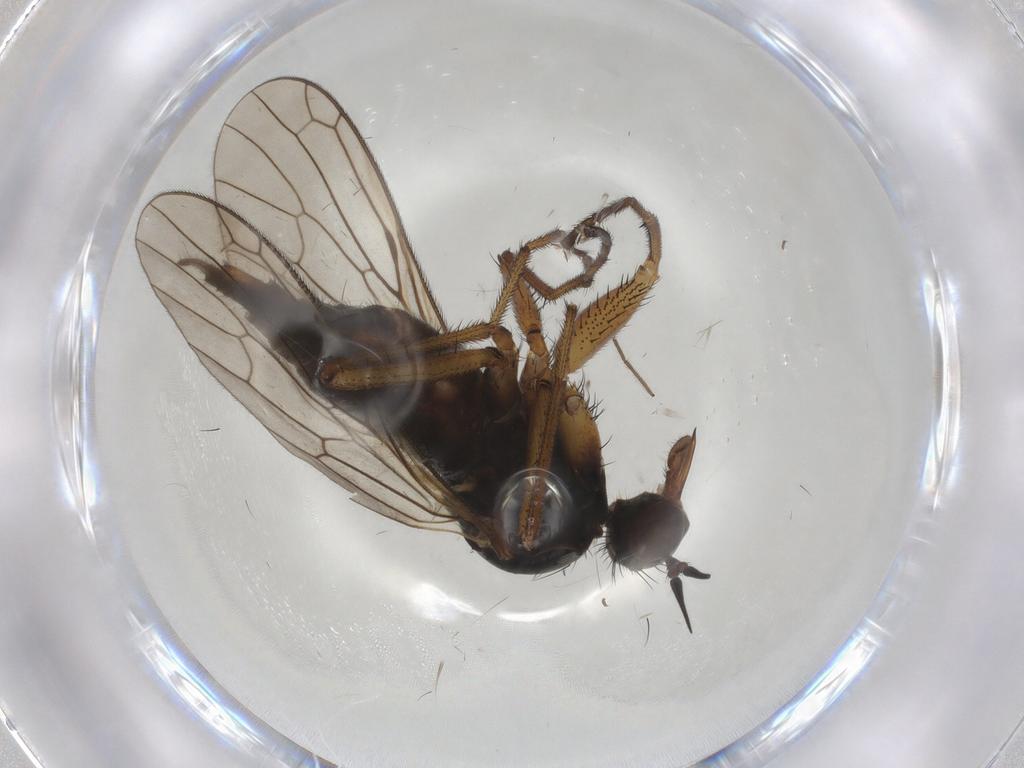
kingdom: Animalia
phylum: Arthropoda
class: Insecta
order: Diptera
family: Empididae
